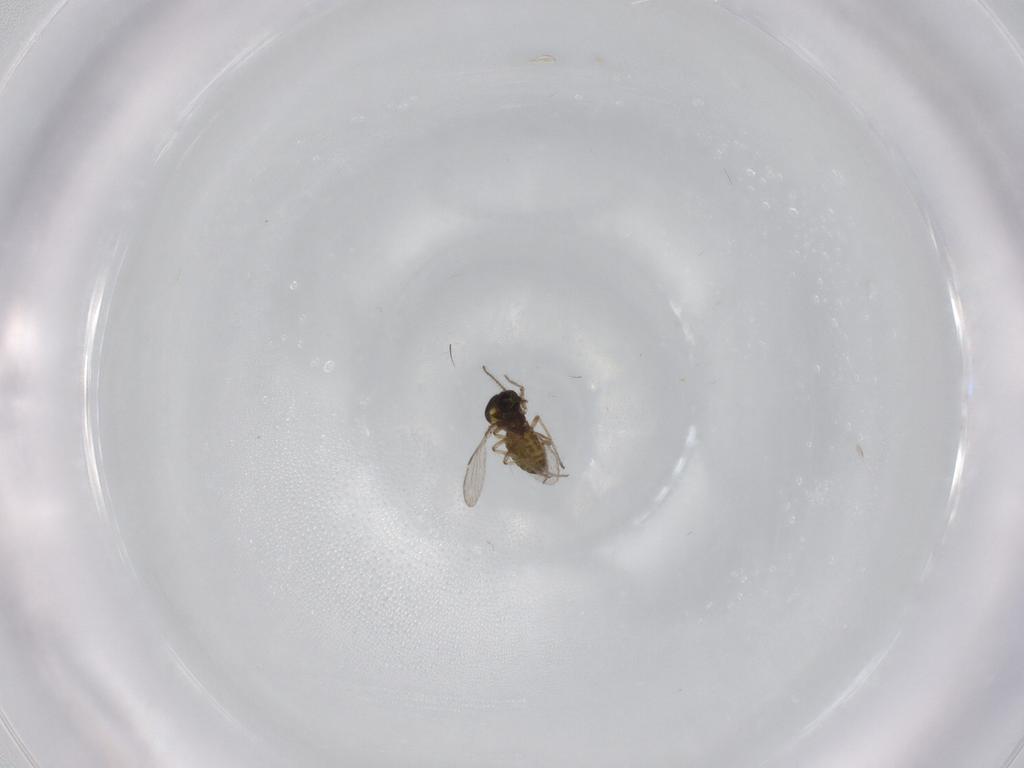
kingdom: Animalia
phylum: Arthropoda
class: Insecta
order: Diptera
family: Ceratopogonidae
